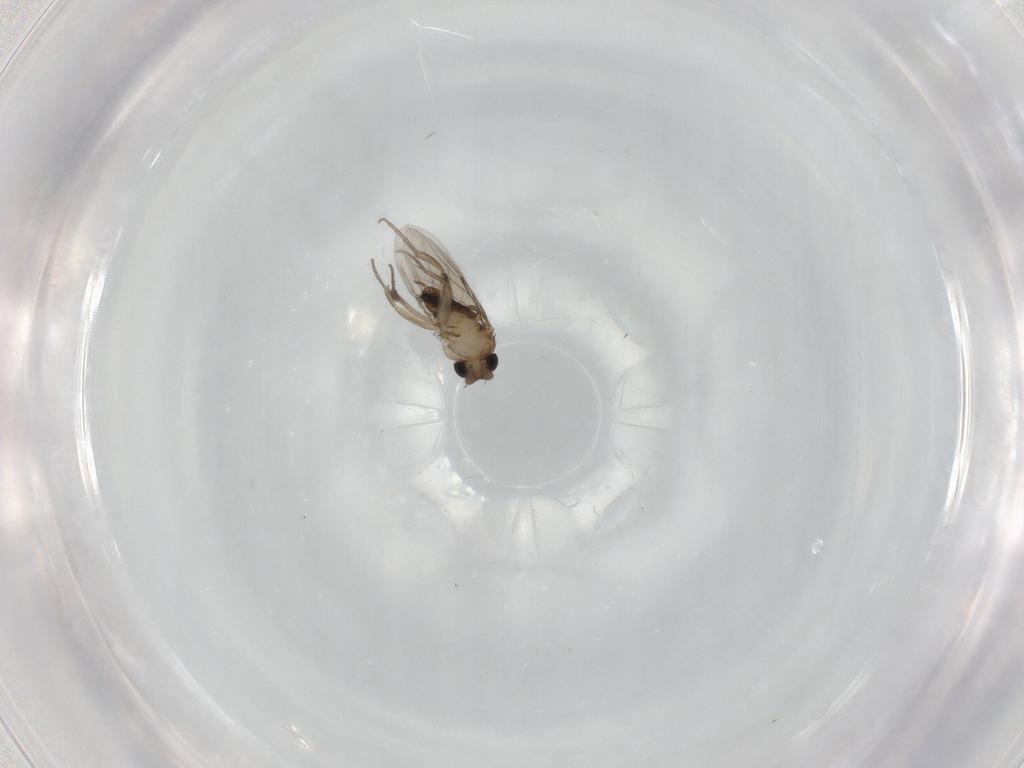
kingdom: Animalia
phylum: Arthropoda
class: Insecta
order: Diptera
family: Phoridae
